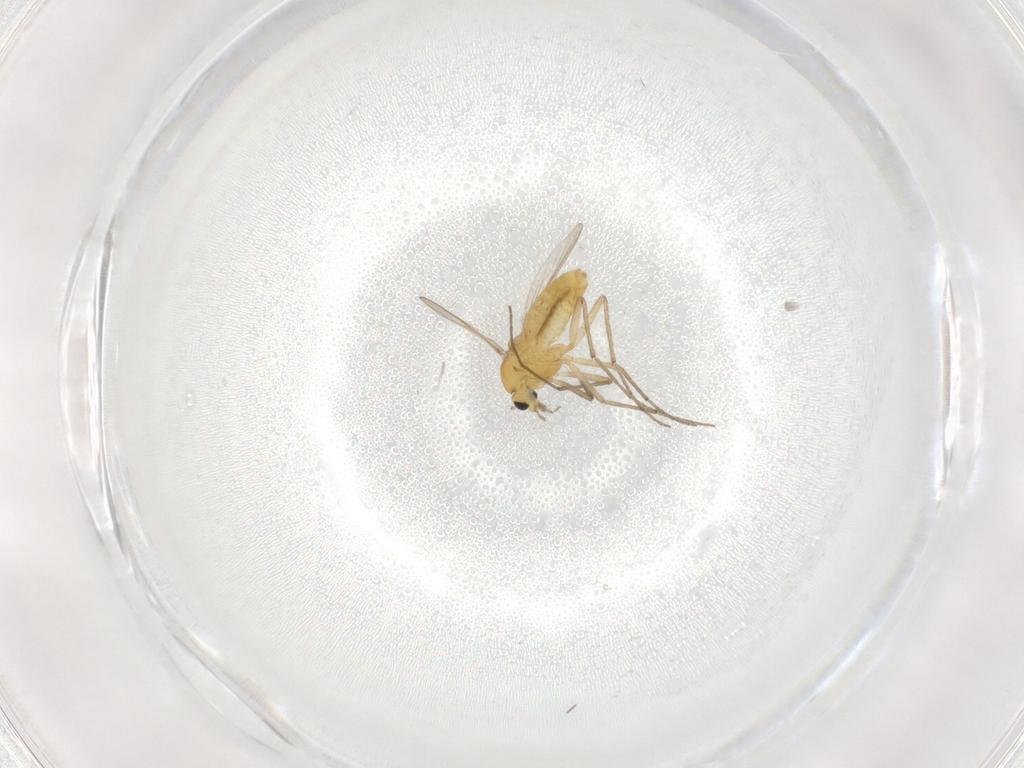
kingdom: Animalia
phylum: Arthropoda
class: Insecta
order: Diptera
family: Chironomidae
